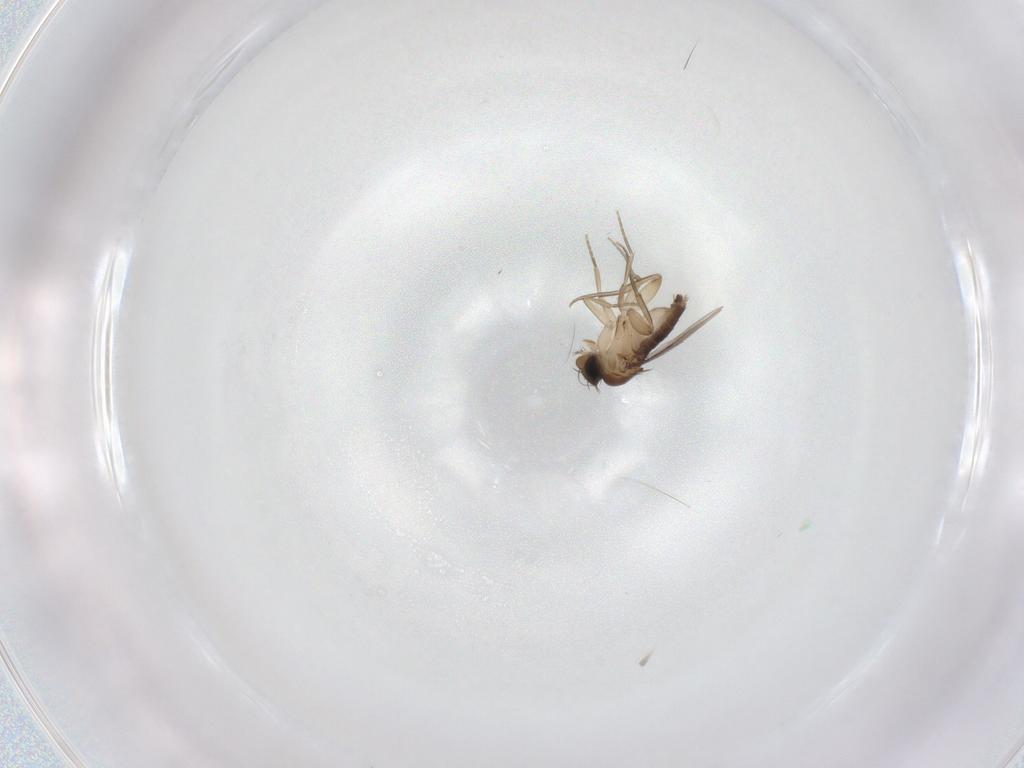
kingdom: Animalia
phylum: Arthropoda
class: Insecta
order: Diptera
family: Phoridae
